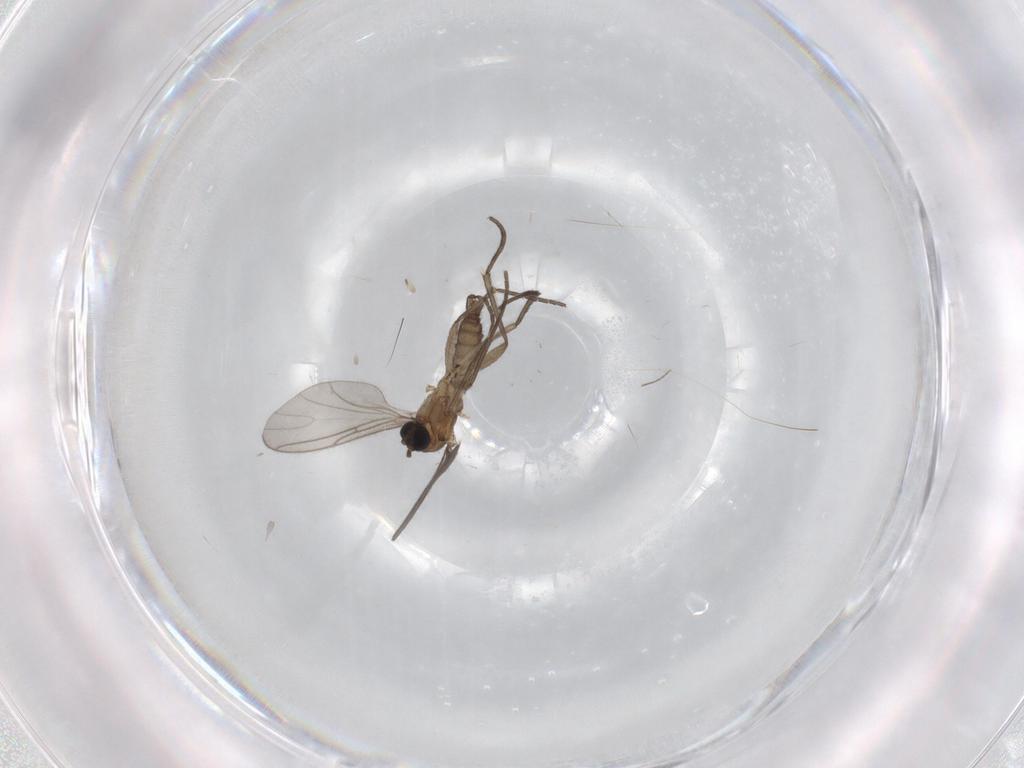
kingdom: Animalia
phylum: Arthropoda
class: Insecta
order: Diptera
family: Sciaridae
